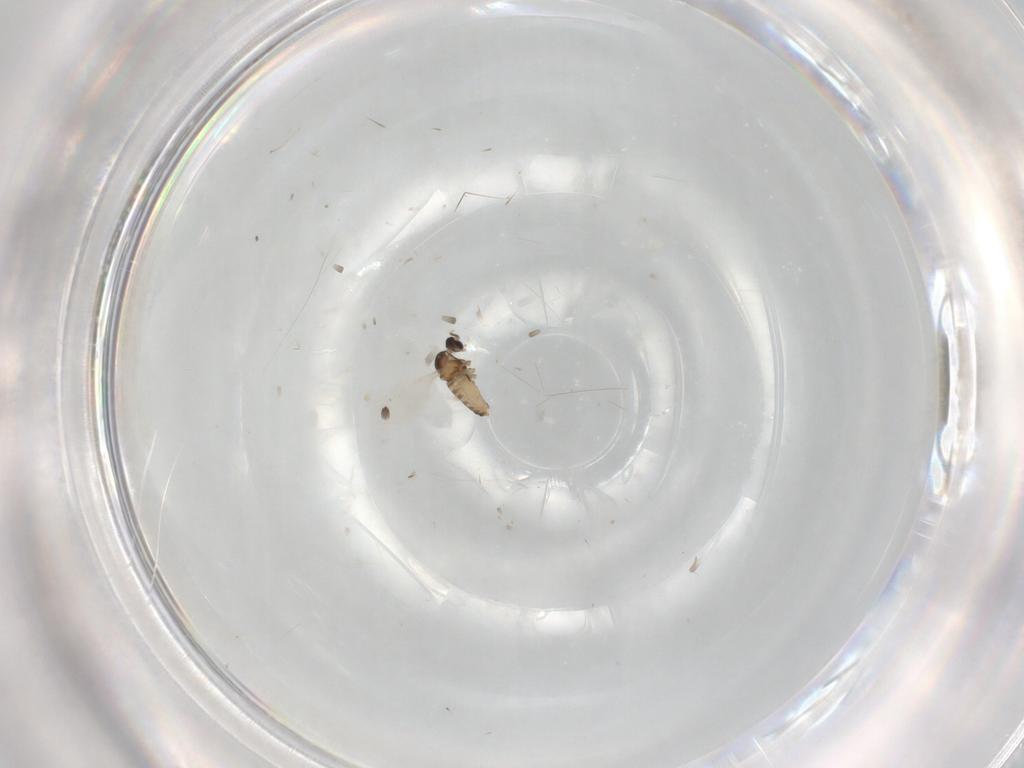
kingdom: Animalia
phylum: Arthropoda
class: Insecta
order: Diptera
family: Cecidomyiidae
